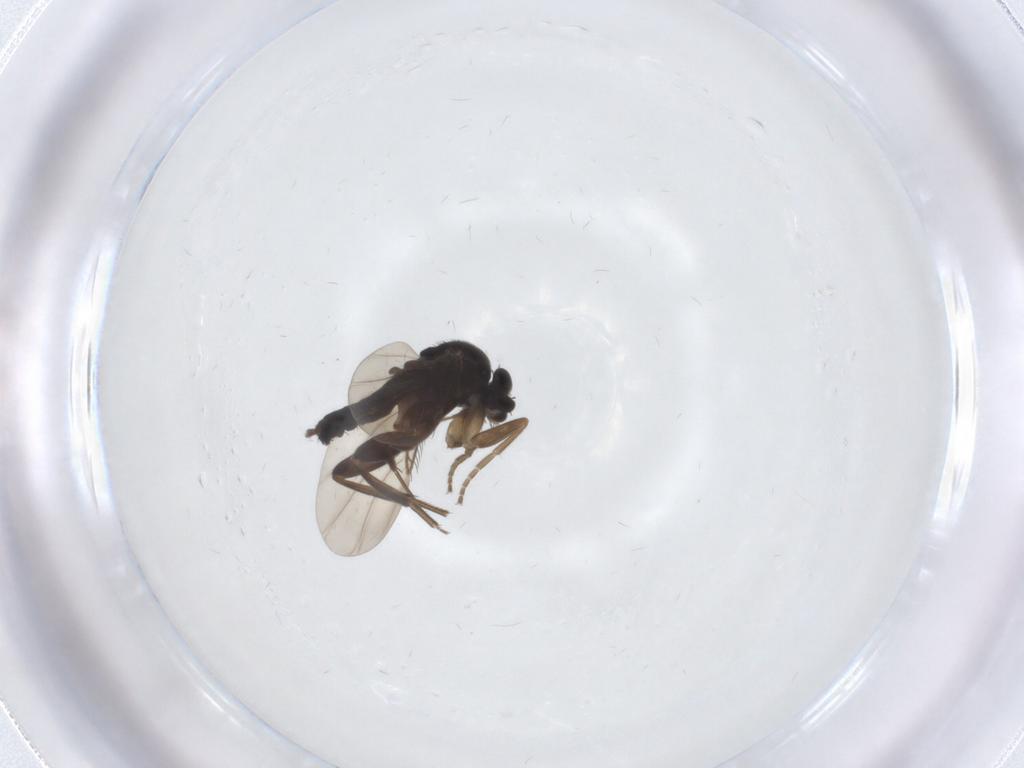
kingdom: Animalia
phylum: Arthropoda
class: Insecta
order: Diptera
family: Phoridae
